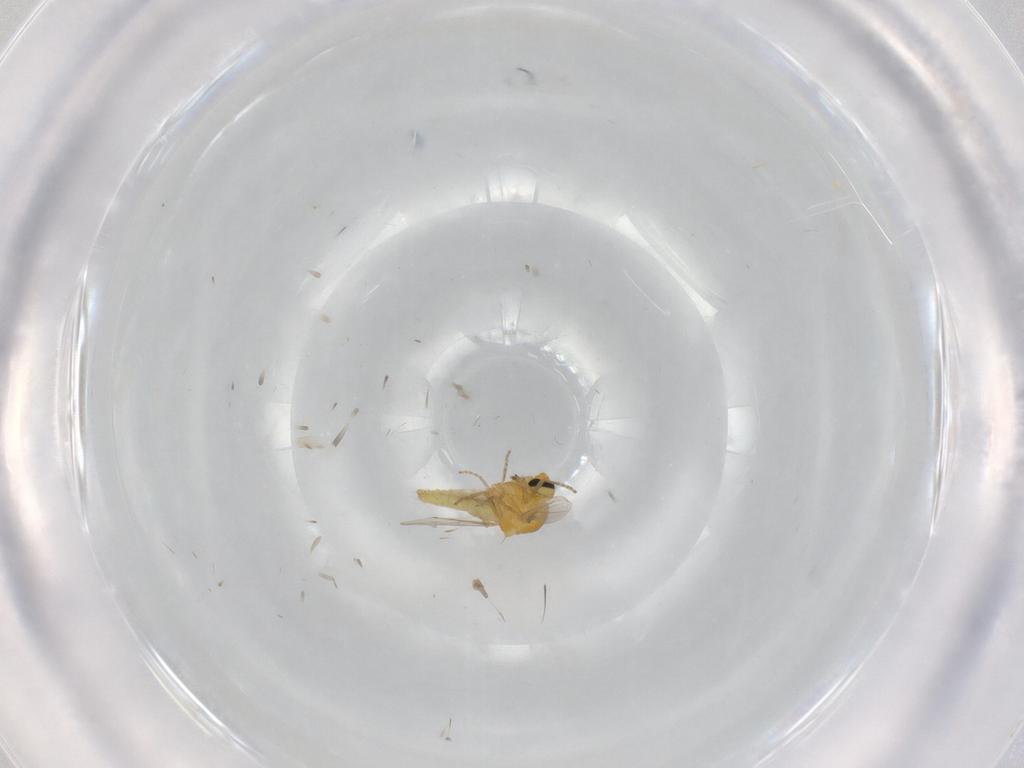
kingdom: Animalia
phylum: Arthropoda
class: Insecta
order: Diptera
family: Ceratopogonidae
